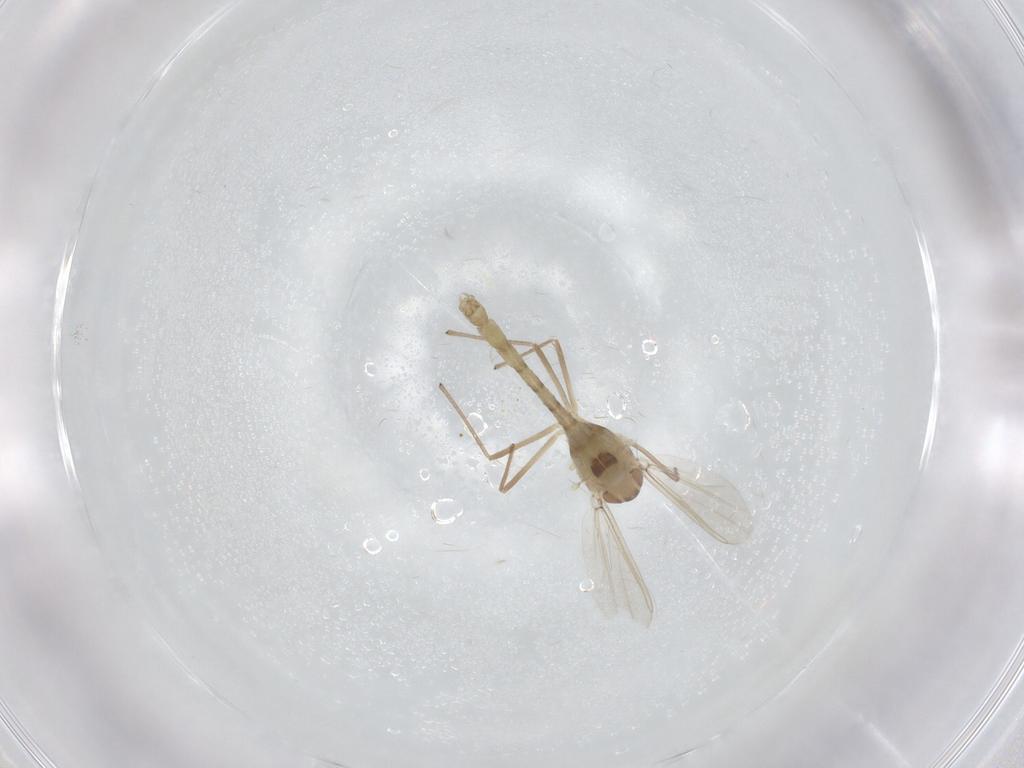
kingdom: Animalia
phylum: Arthropoda
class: Insecta
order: Diptera
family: Chironomidae
